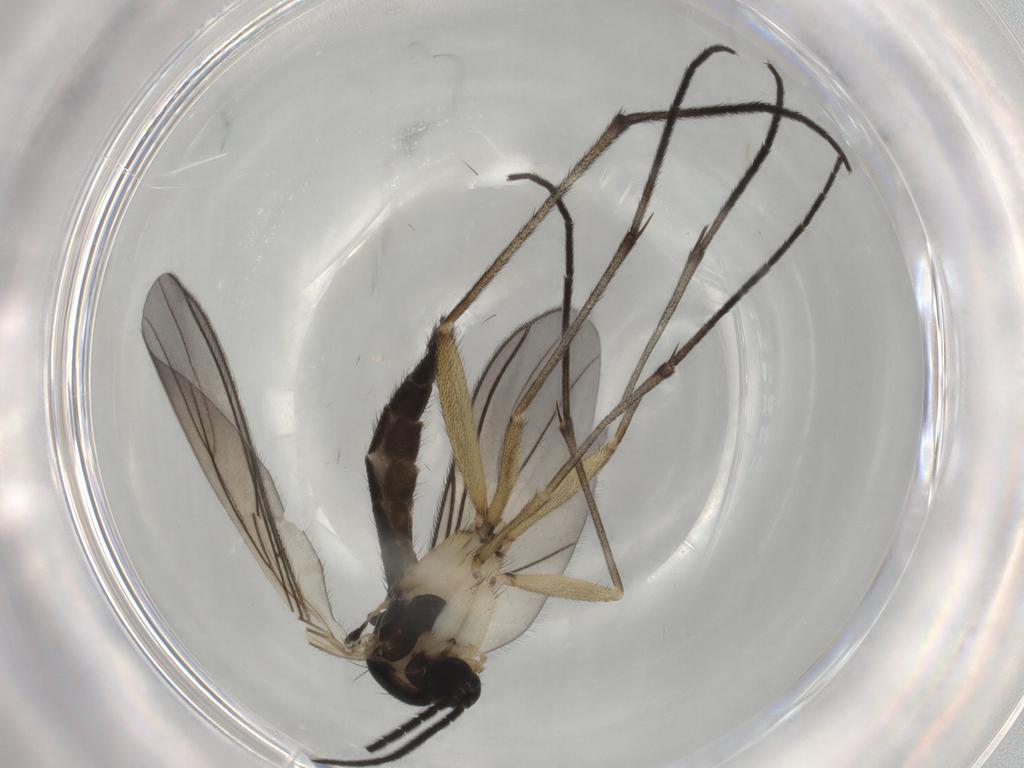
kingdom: Animalia
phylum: Arthropoda
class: Insecta
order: Diptera
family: Sciaridae
